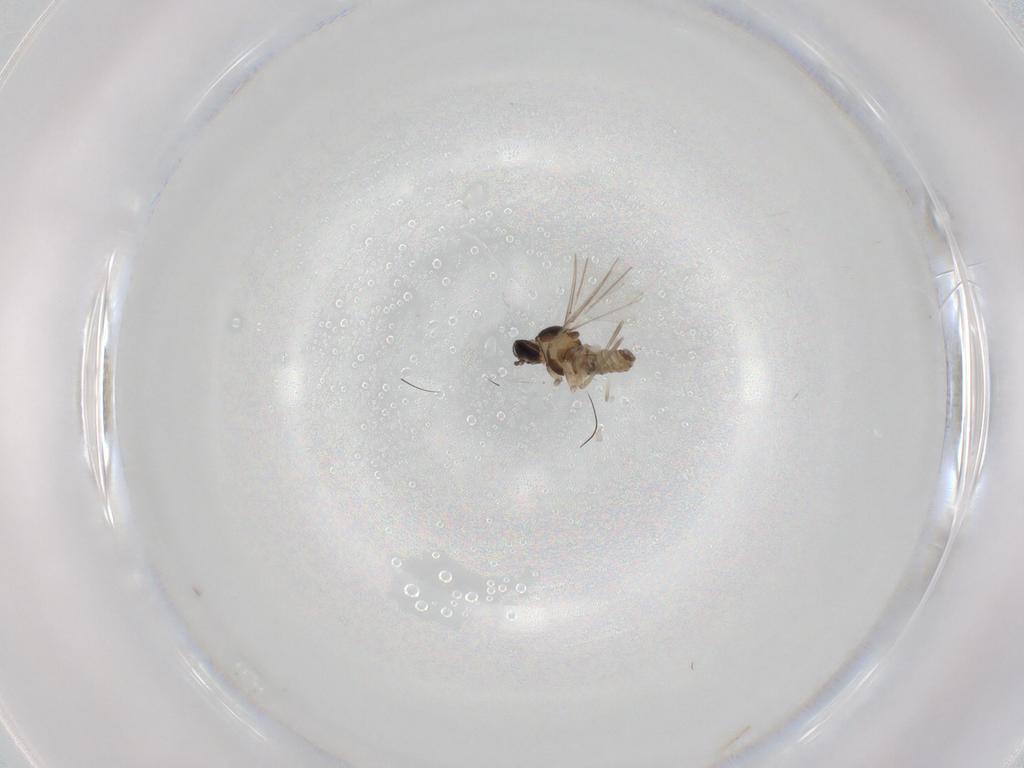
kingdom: Animalia
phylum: Arthropoda
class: Insecta
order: Diptera
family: Cecidomyiidae
